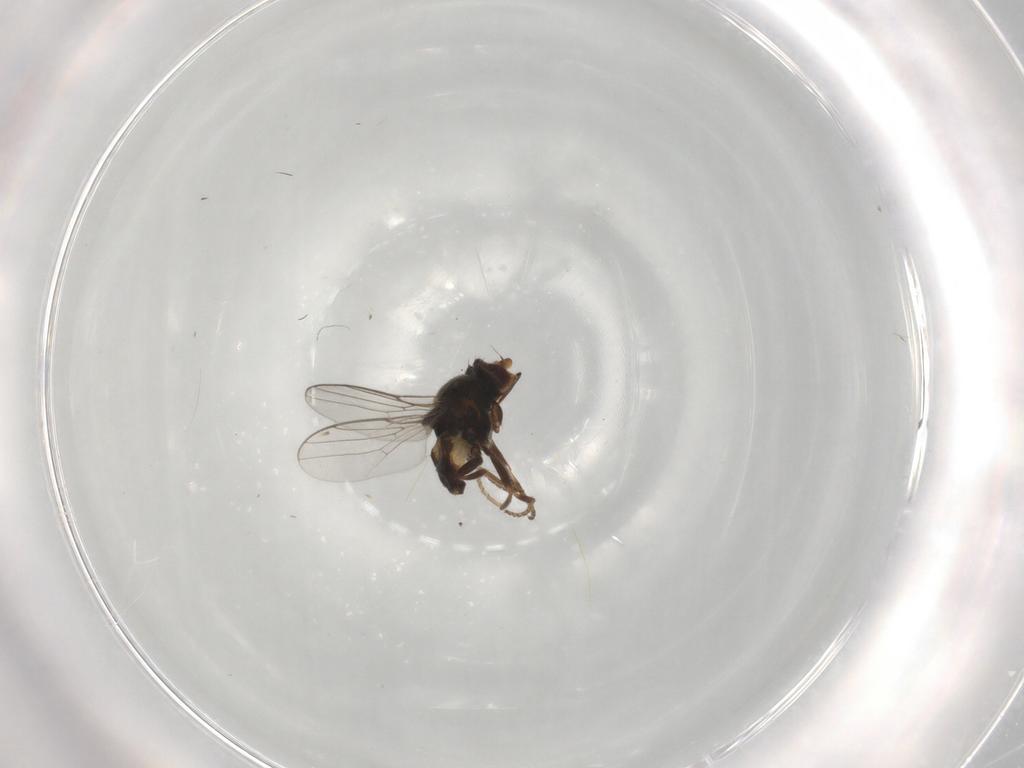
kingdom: Animalia
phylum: Arthropoda
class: Insecta
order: Diptera
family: Chloropidae
